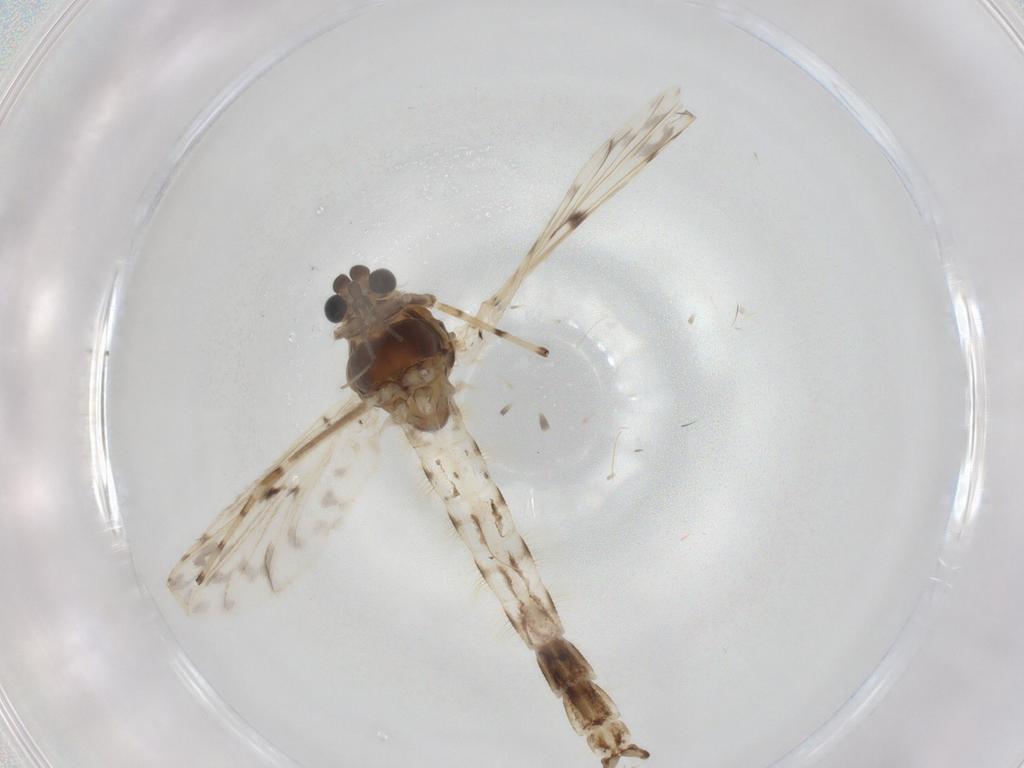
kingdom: Animalia
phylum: Arthropoda
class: Insecta
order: Diptera
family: Chironomidae
